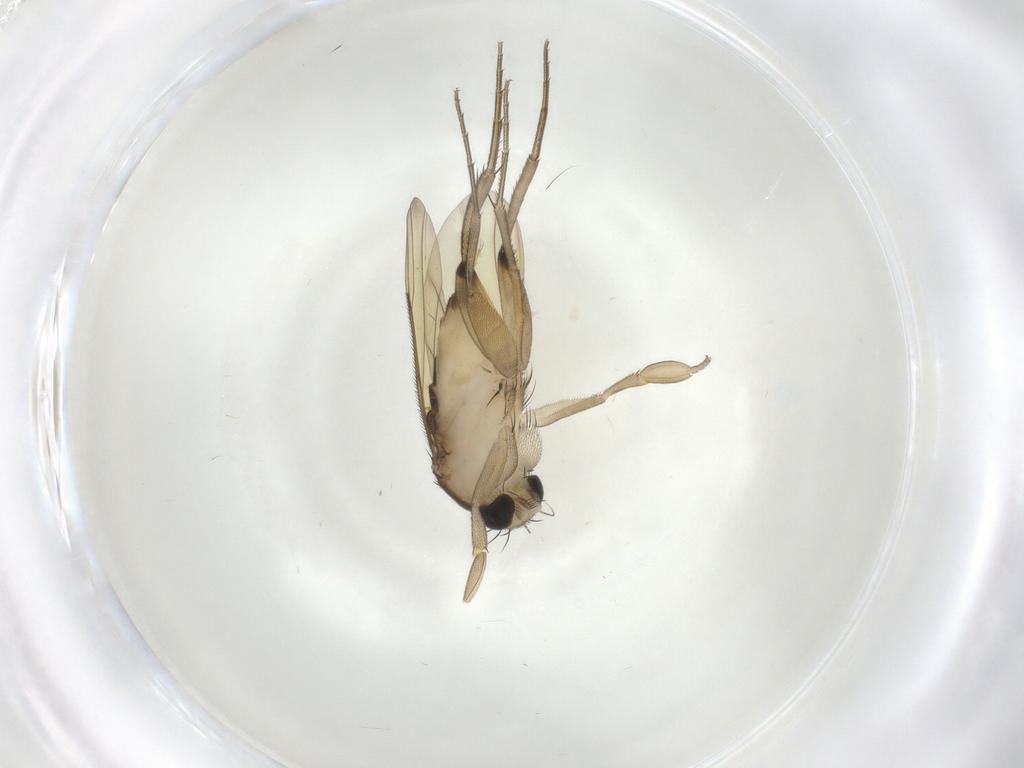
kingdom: Animalia
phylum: Arthropoda
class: Insecta
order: Diptera
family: Phoridae
